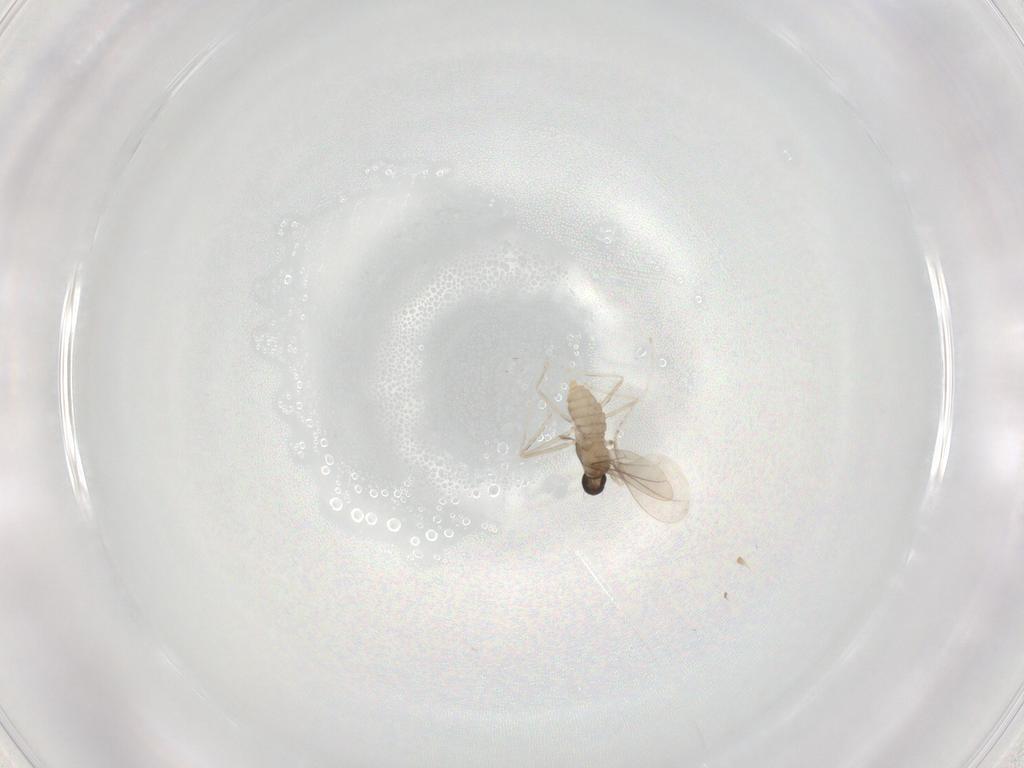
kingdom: Animalia
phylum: Arthropoda
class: Insecta
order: Diptera
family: Cecidomyiidae
